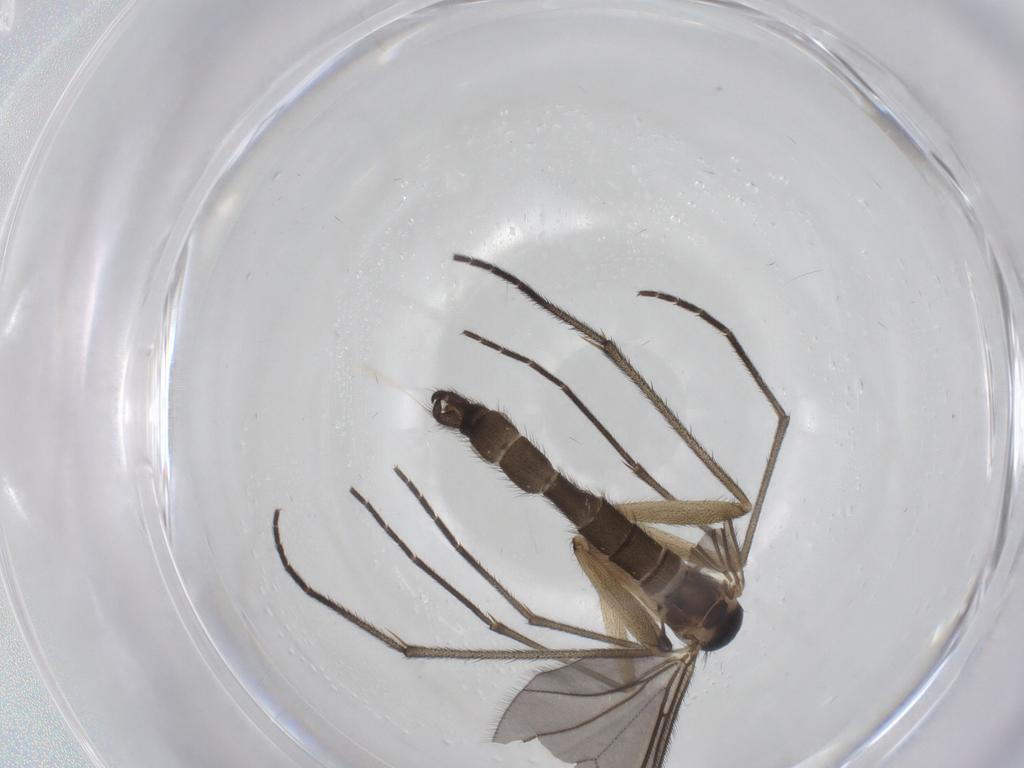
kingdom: Animalia
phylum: Arthropoda
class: Insecta
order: Diptera
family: Sciaridae
